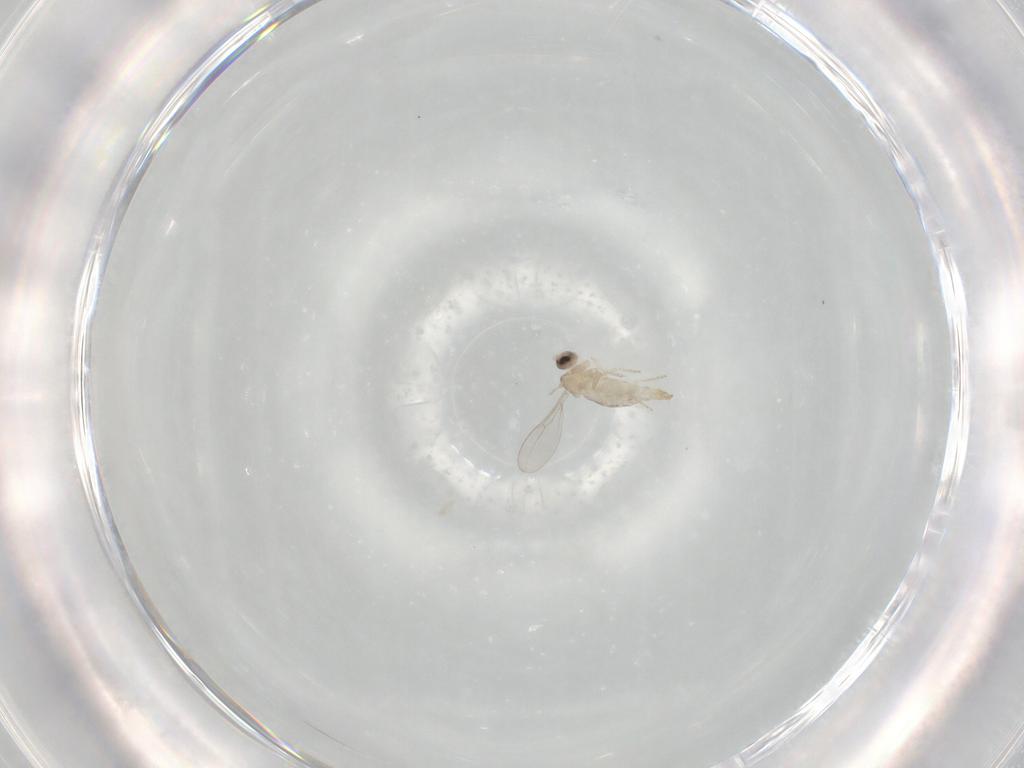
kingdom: Animalia
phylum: Arthropoda
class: Insecta
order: Diptera
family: Cecidomyiidae
